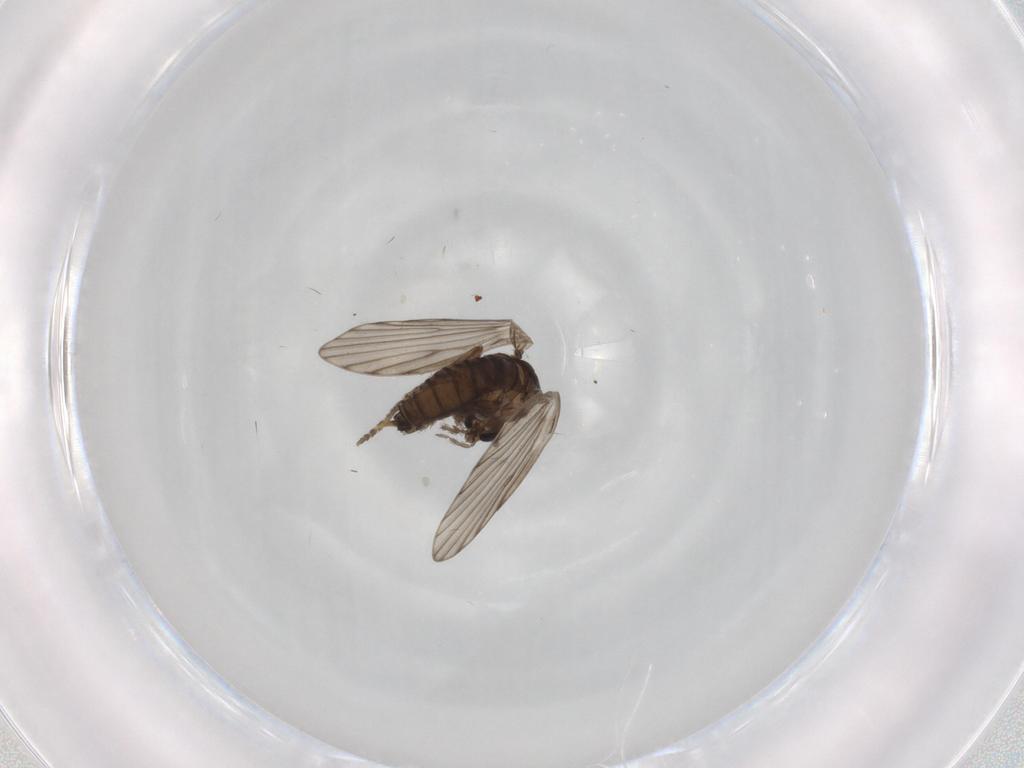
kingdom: Animalia
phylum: Arthropoda
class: Insecta
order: Diptera
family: Phoridae
